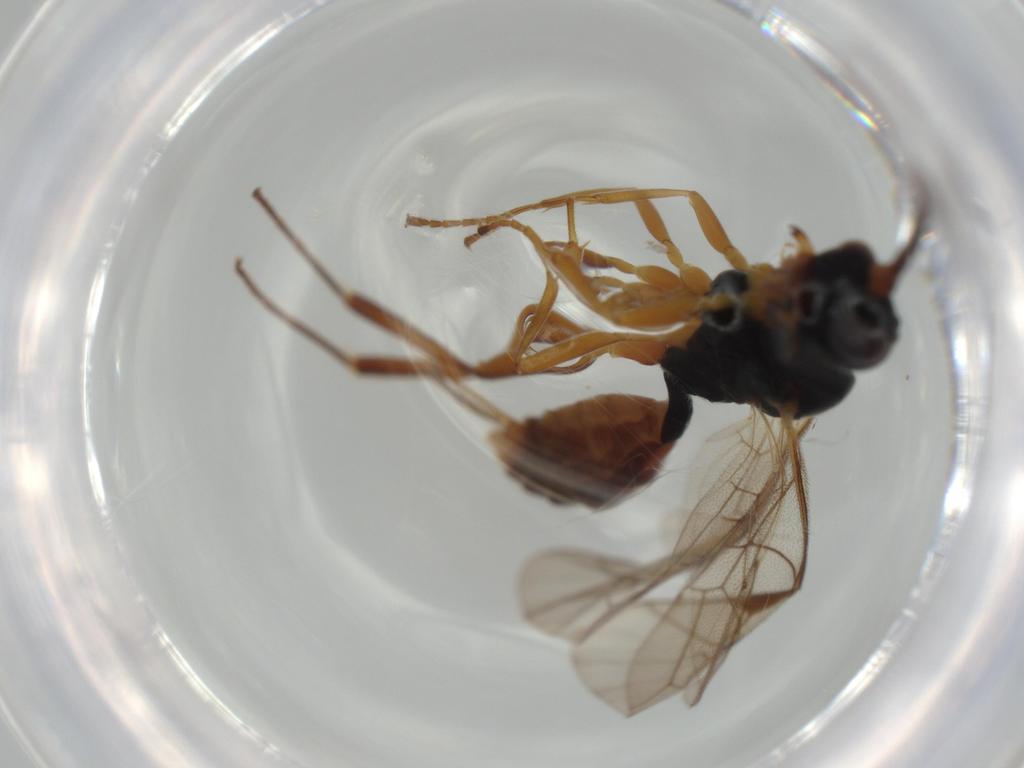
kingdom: Animalia
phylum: Arthropoda
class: Insecta
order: Hymenoptera
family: Ichneumonidae
